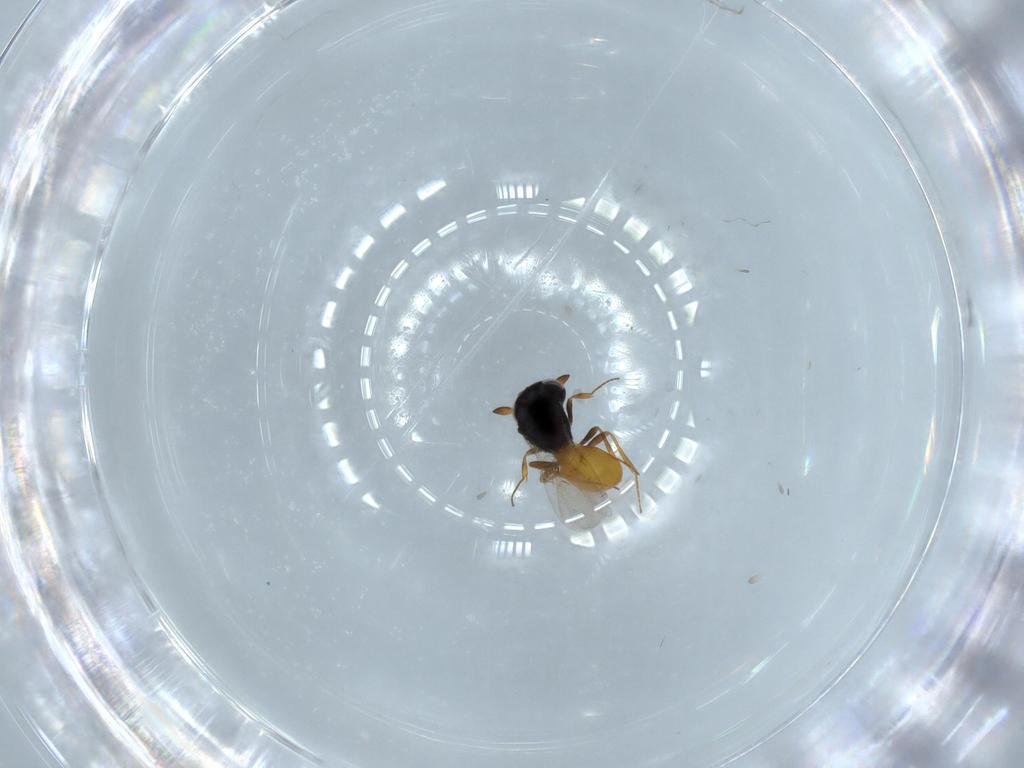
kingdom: Animalia
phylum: Arthropoda
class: Insecta
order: Hymenoptera
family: Scelionidae
